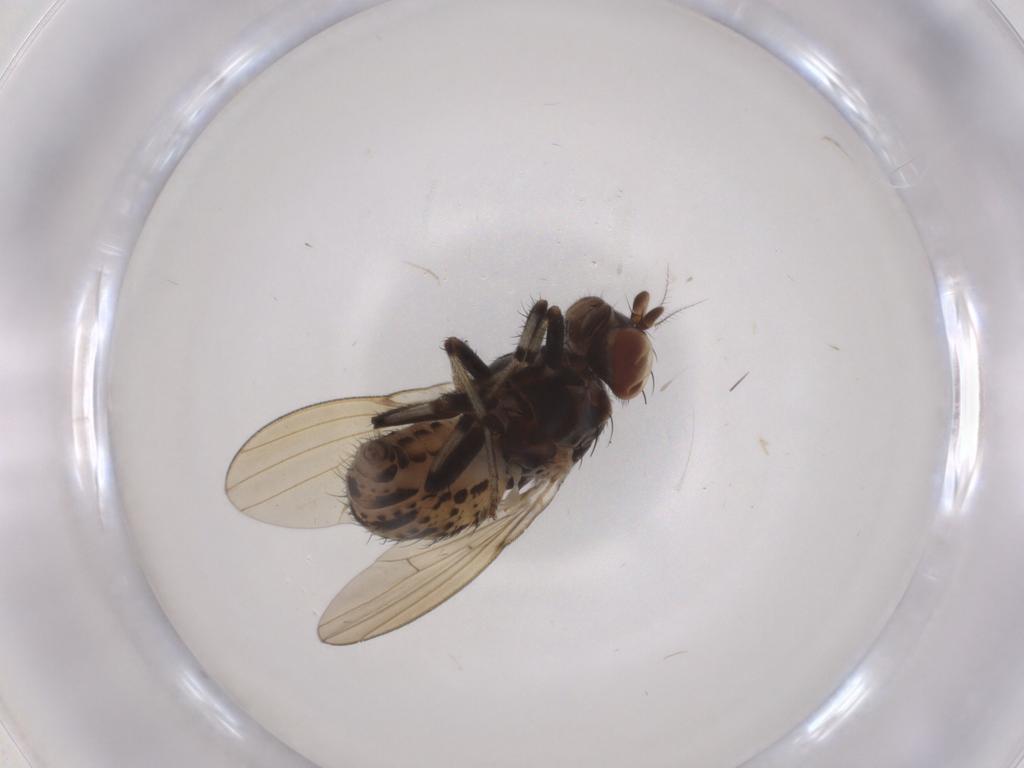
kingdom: Animalia
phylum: Arthropoda
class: Insecta
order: Diptera
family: Tabanidae
